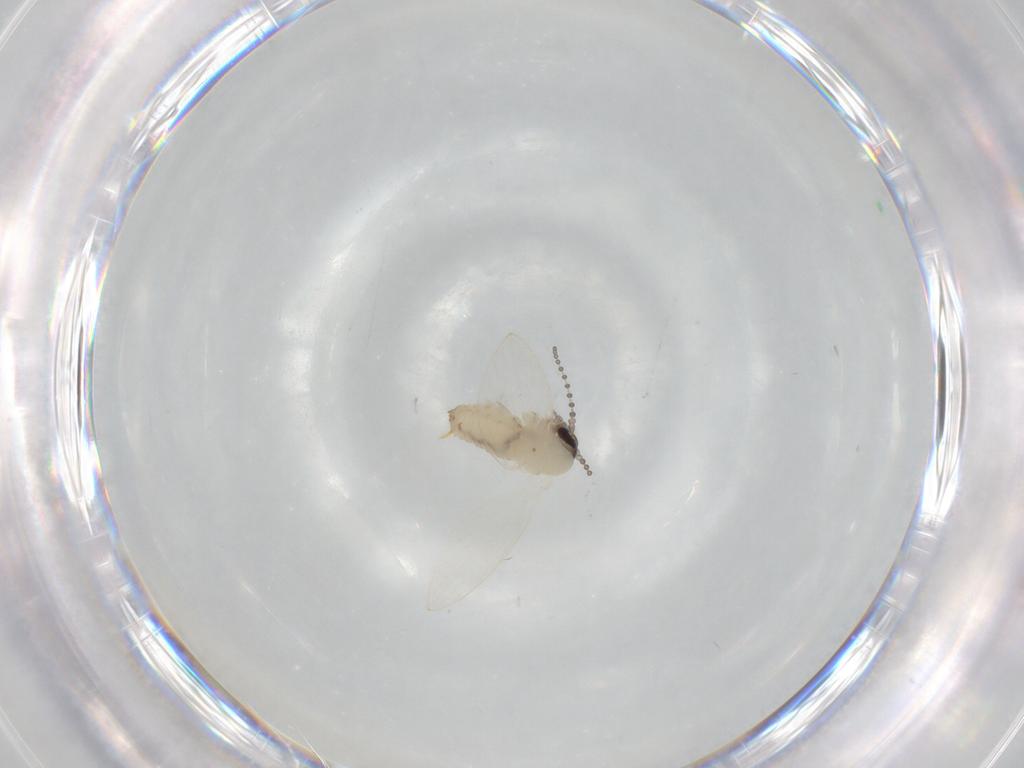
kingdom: Animalia
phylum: Arthropoda
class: Insecta
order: Diptera
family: Psychodidae
